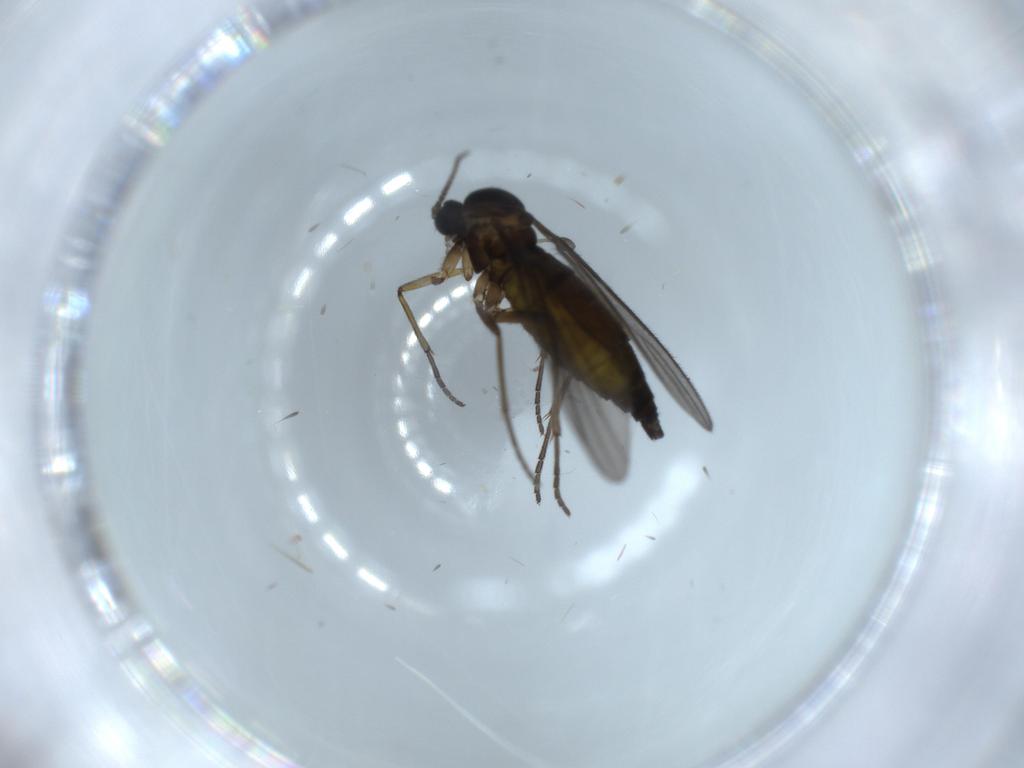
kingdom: Animalia
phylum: Arthropoda
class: Insecta
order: Diptera
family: Sciaridae
